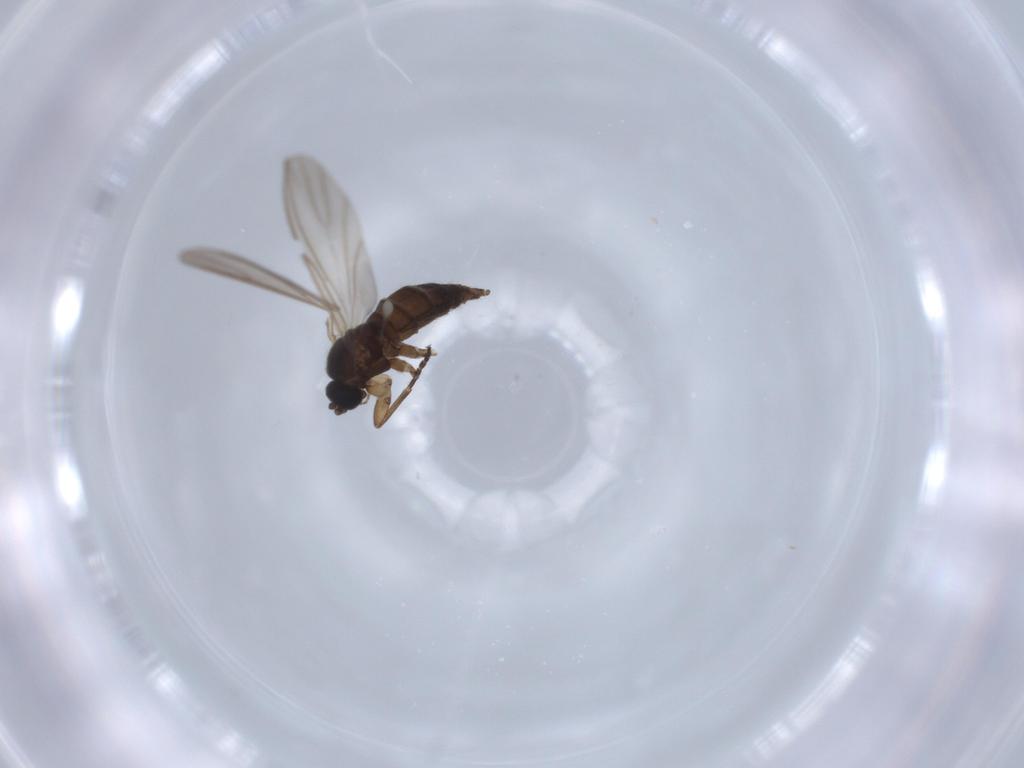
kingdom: Animalia
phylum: Arthropoda
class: Insecta
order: Diptera
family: Sciaridae
